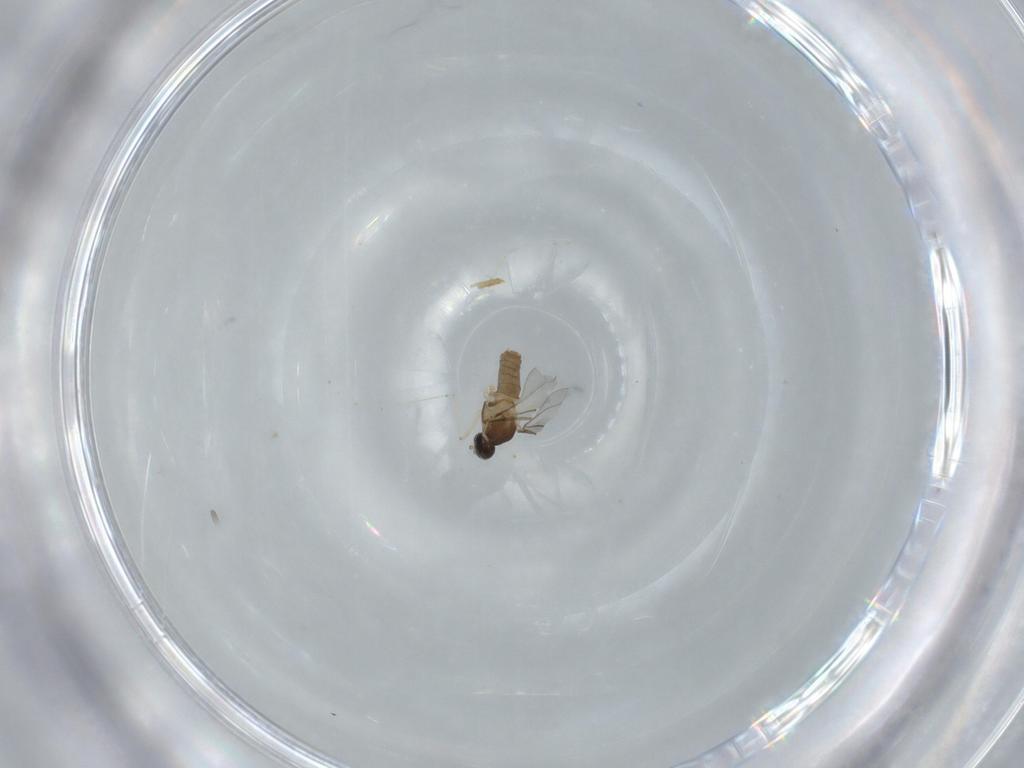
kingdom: Animalia
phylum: Arthropoda
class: Insecta
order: Diptera
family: Cecidomyiidae
